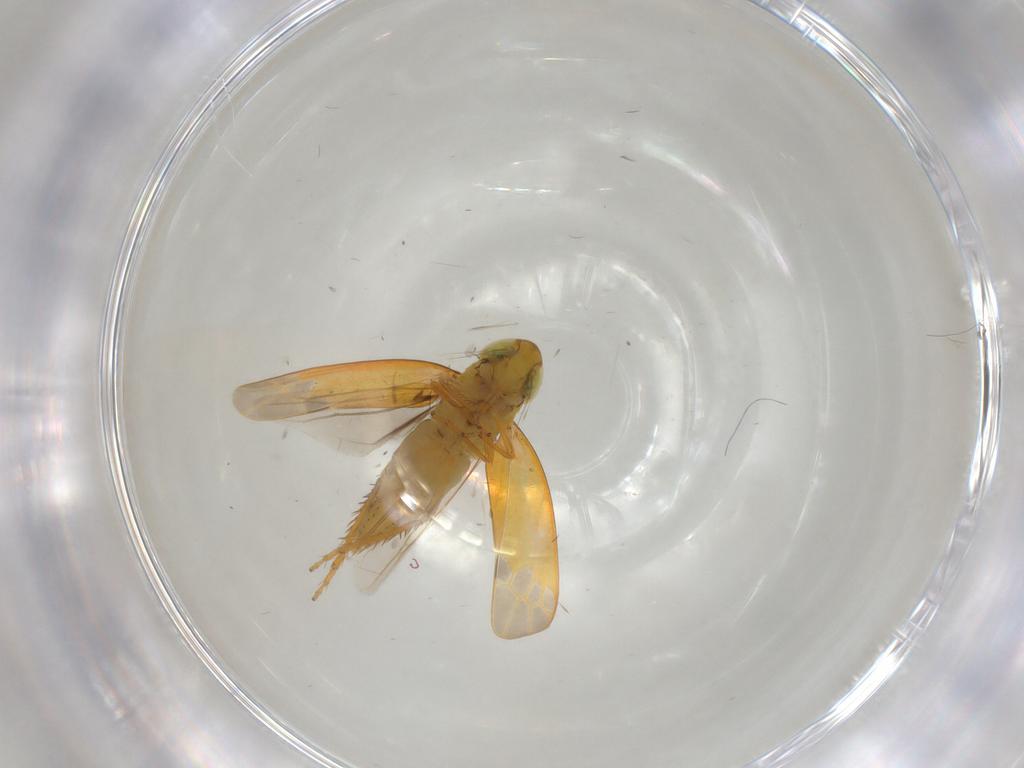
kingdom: Animalia
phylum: Arthropoda
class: Insecta
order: Hemiptera
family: Cicadellidae
